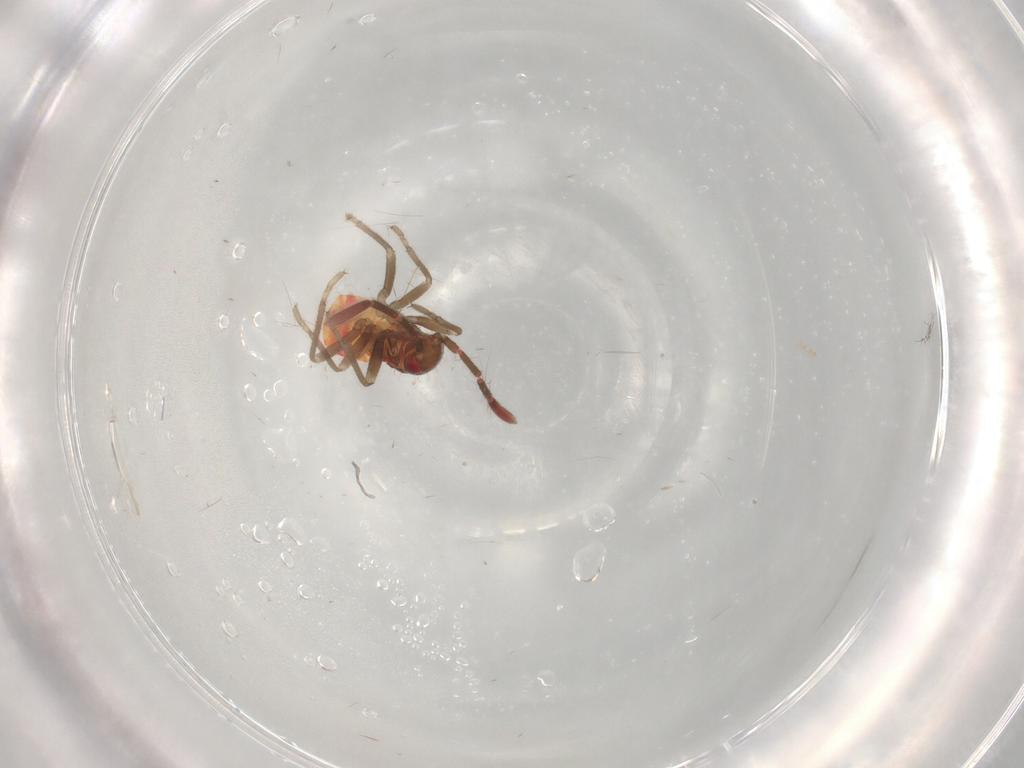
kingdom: Animalia
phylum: Arthropoda
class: Insecta
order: Hemiptera
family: Rhyparochromidae
